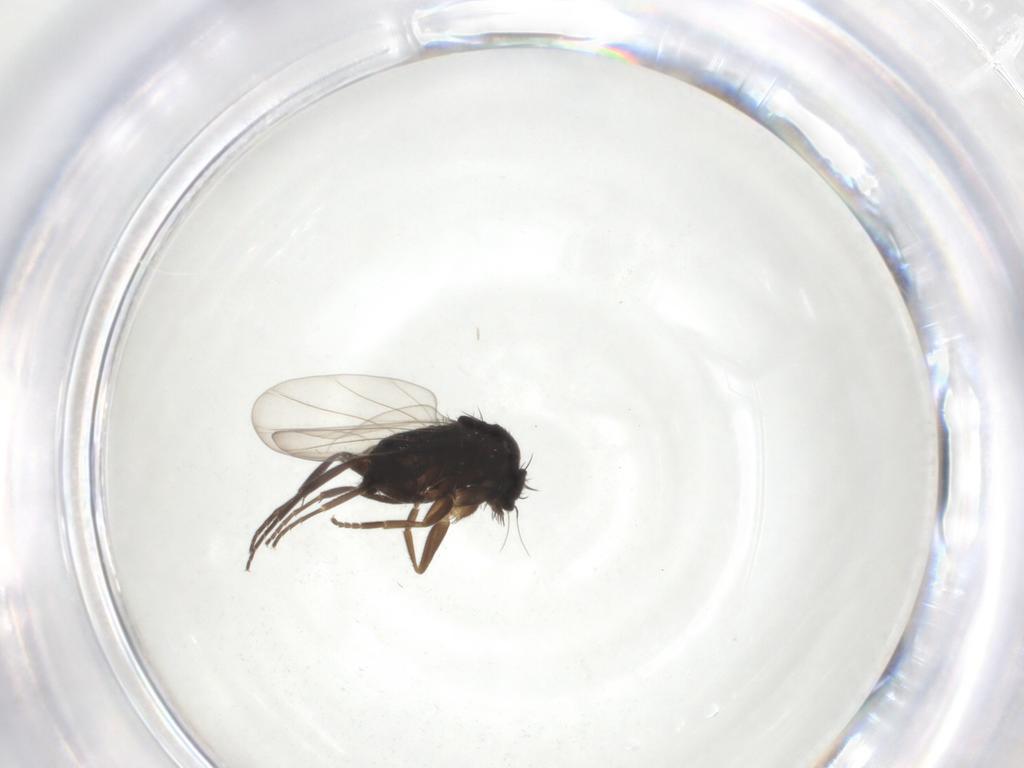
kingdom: Animalia
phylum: Arthropoda
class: Insecta
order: Diptera
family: Phoridae
